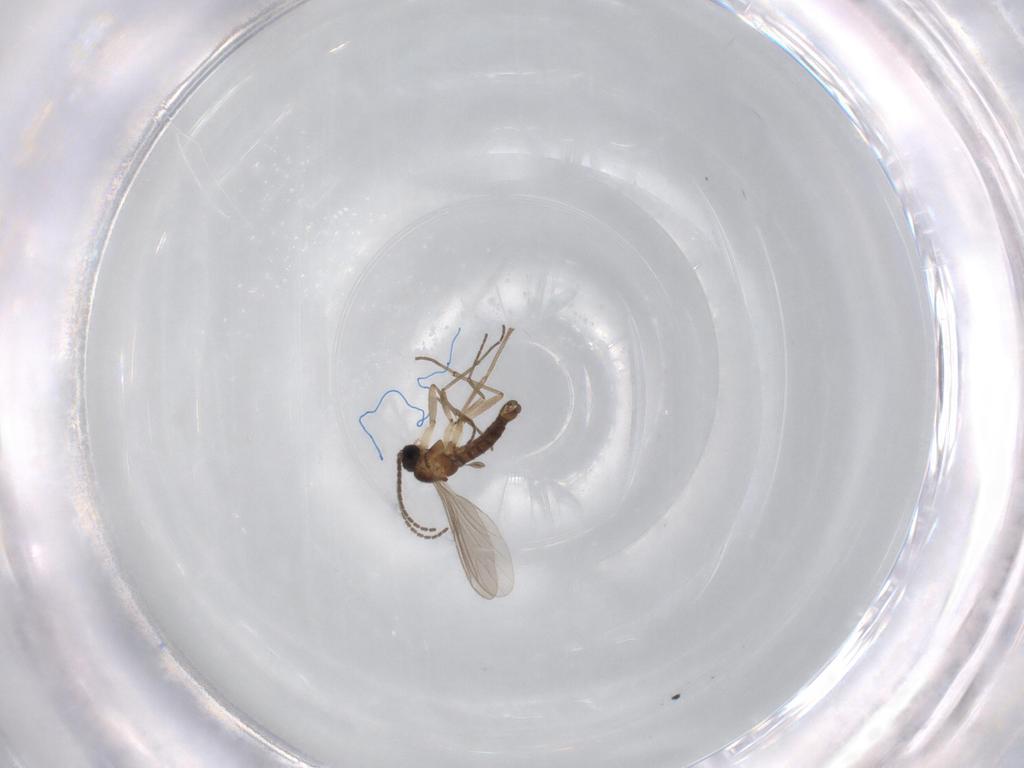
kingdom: Animalia
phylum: Arthropoda
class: Insecta
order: Diptera
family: Sciaridae
